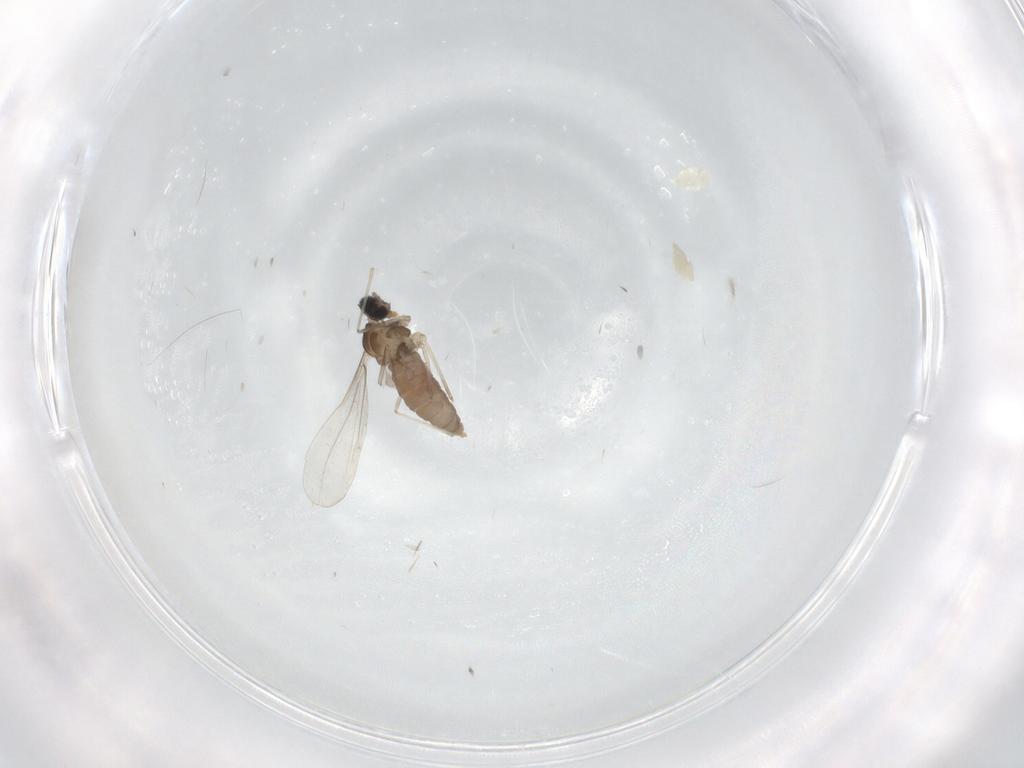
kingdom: Animalia
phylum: Arthropoda
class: Insecta
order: Diptera
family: Cecidomyiidae
